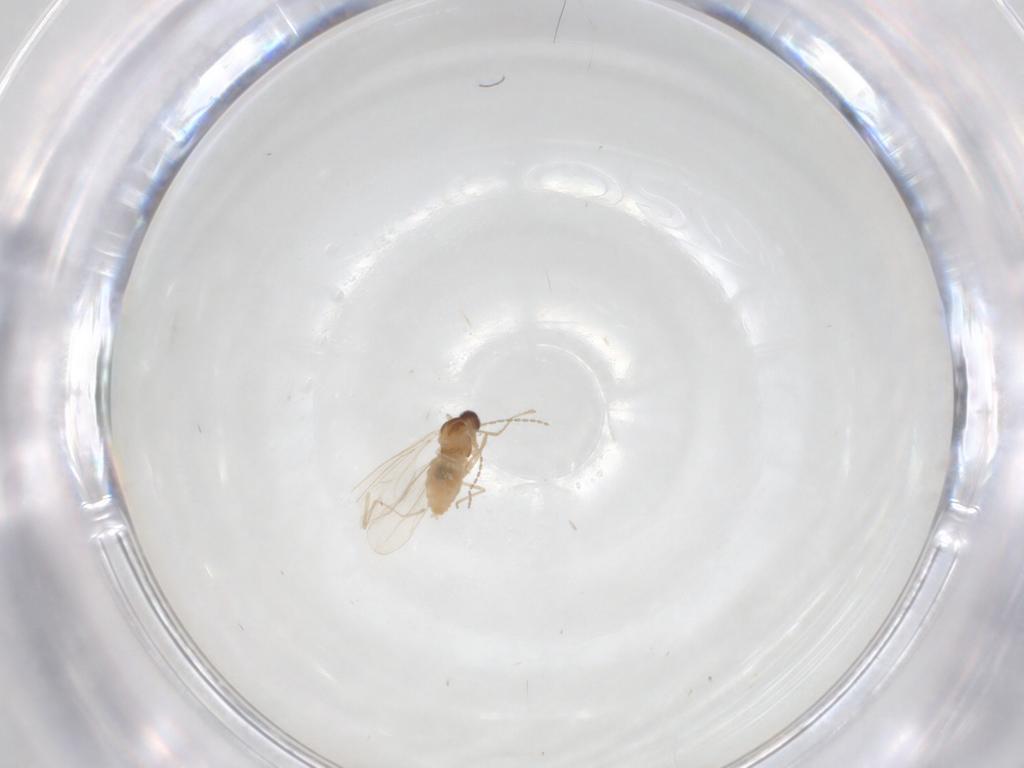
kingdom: Animalia
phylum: Arthropoda
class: Insecta
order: Diptera
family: Cecidomyiidae
